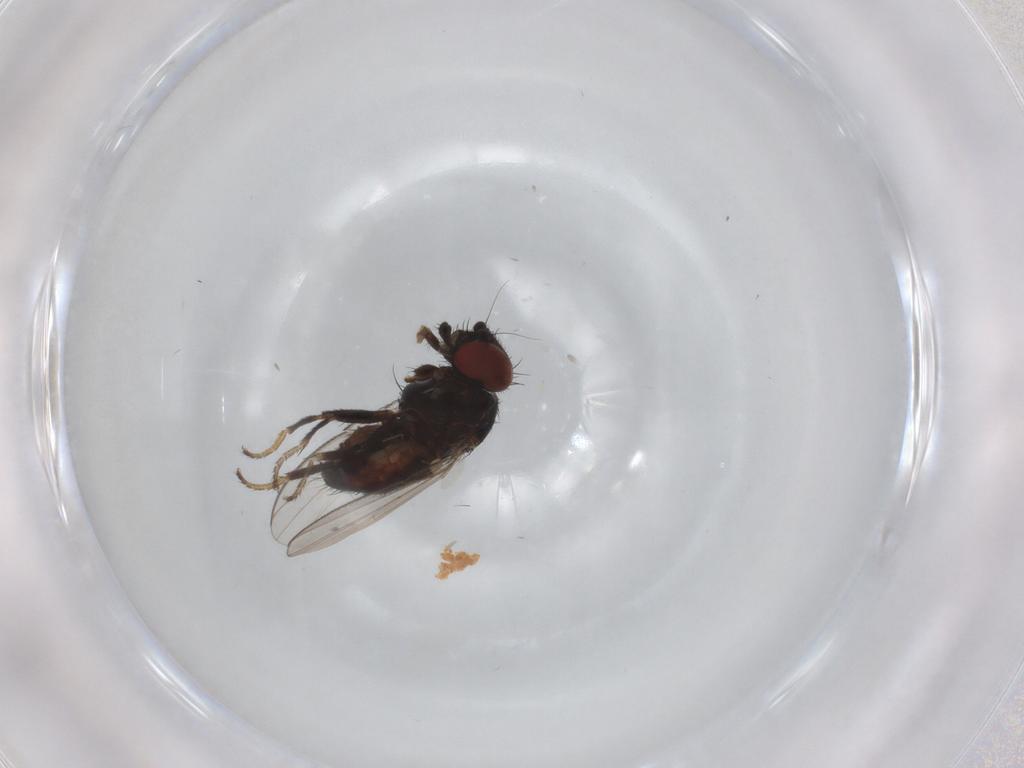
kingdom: Animalia
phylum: Arthropoda
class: Insecta
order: Diptera
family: Milichiidae
